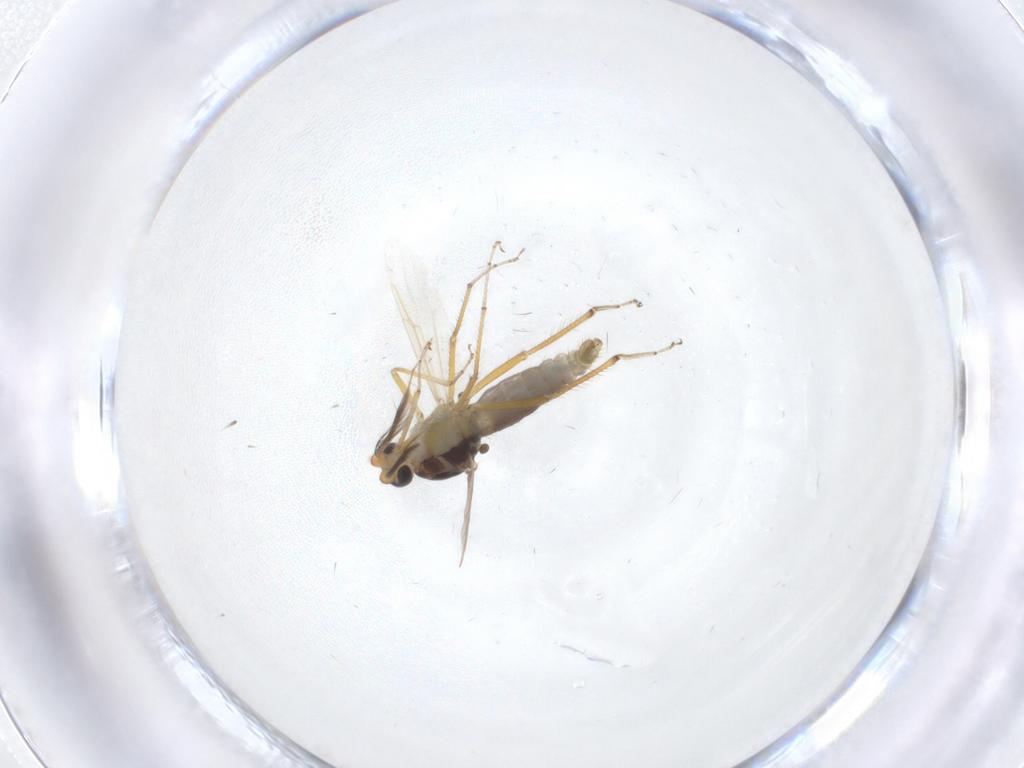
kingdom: Animalia
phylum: Arthropoda
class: Insecta
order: Diptera
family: Ceratopogonidae
